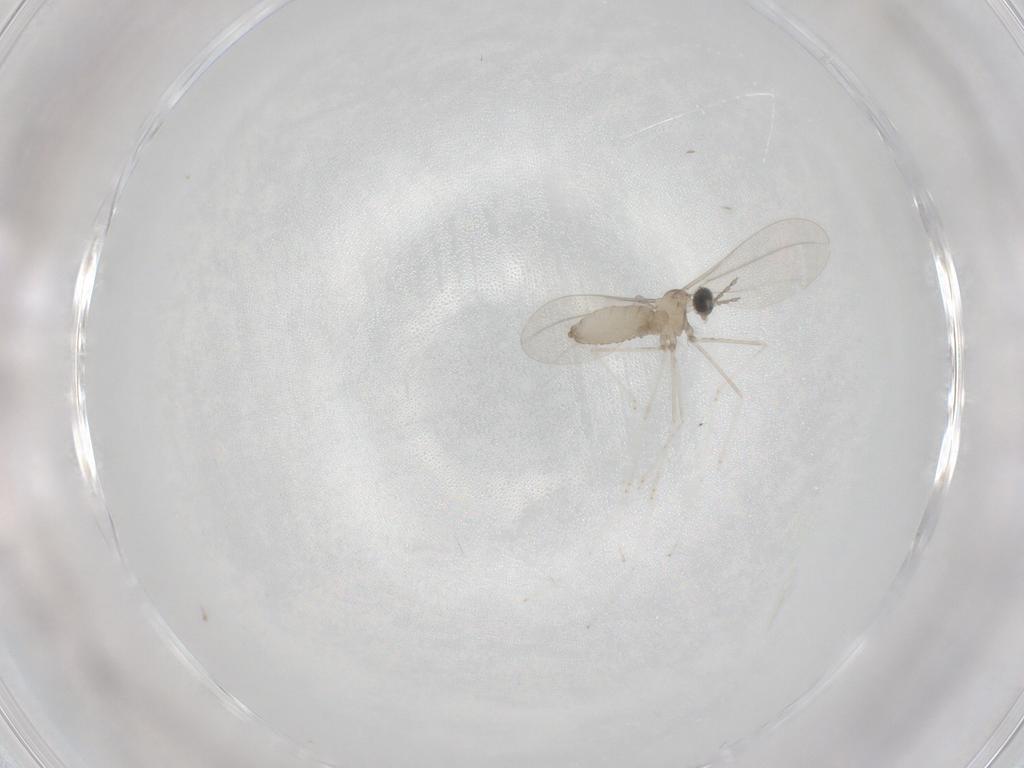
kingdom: Animalia
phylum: Arthropoda
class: Insecta
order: Diptera
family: Cecidomyiidae
